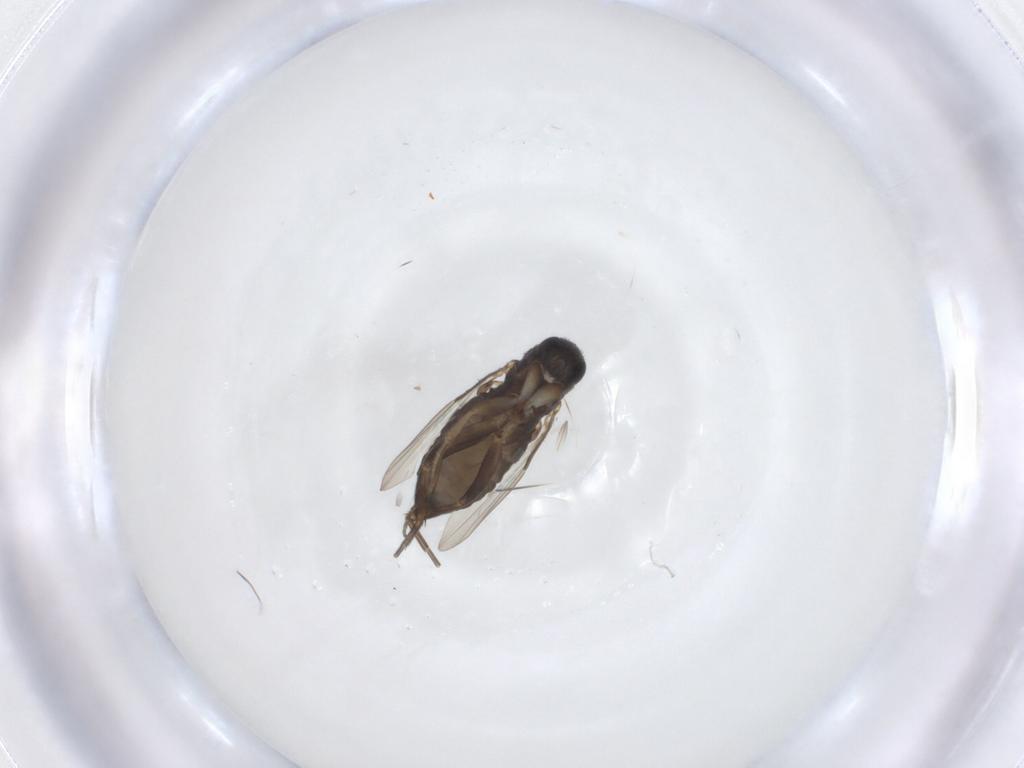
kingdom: Animalia
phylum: Arthropoda
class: Insecta
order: Diptera
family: Phoridae
